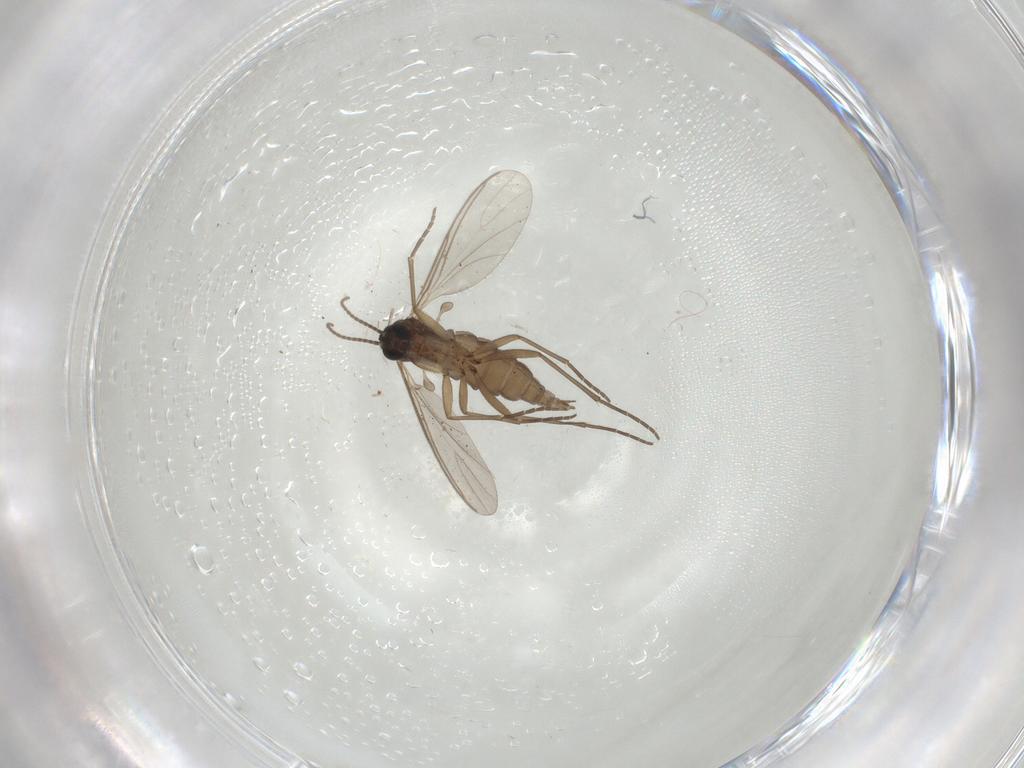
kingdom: Animalia
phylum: Arthropoda
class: Insecta
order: Diptera
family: Sciaridae
